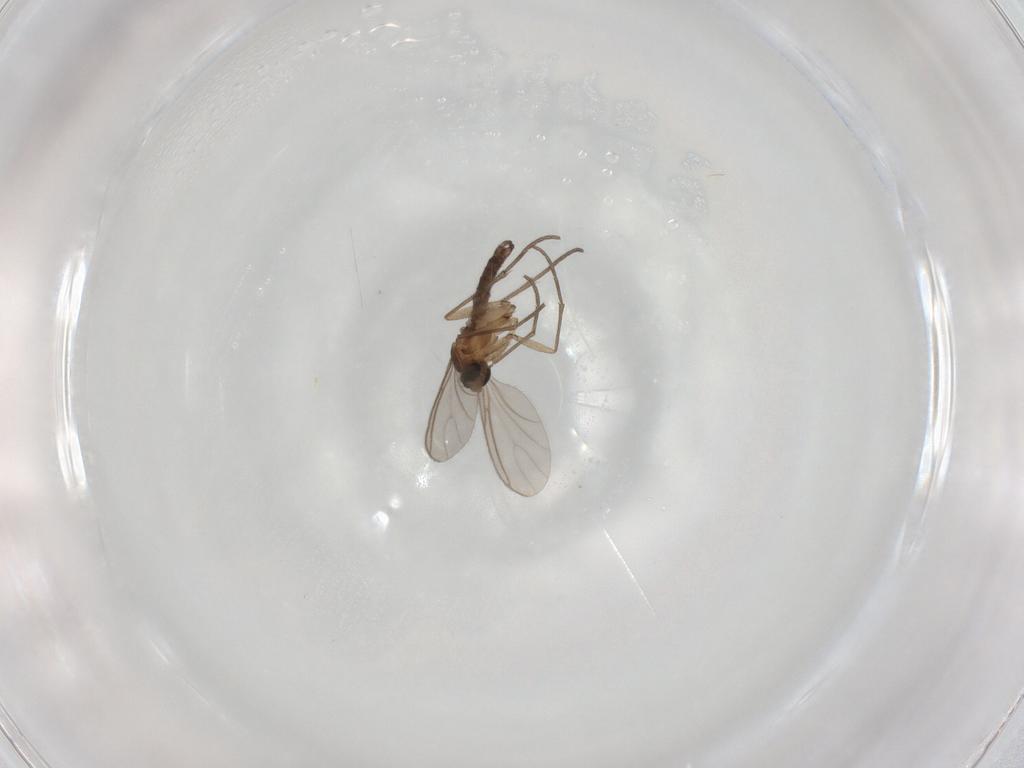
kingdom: Animalia
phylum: Arthropoda
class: Insecta
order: Diptera
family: Sciaridae
